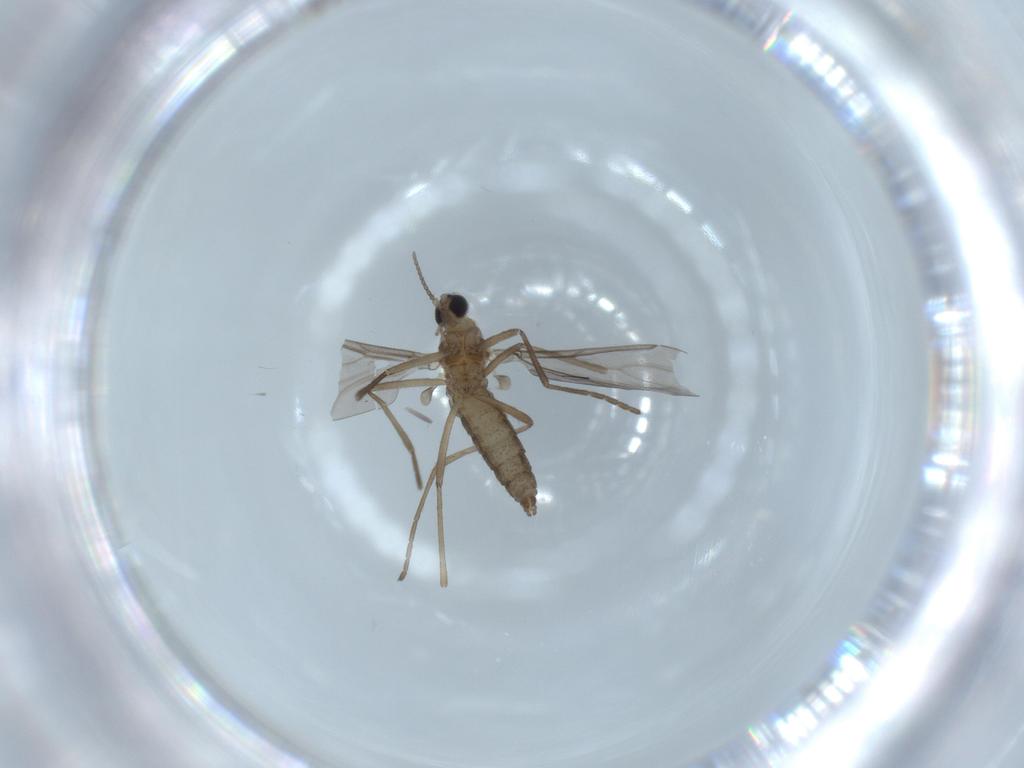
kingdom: Animalia
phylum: Arthropoda
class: Insecta
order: Diptera
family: Cecidomyiidae
